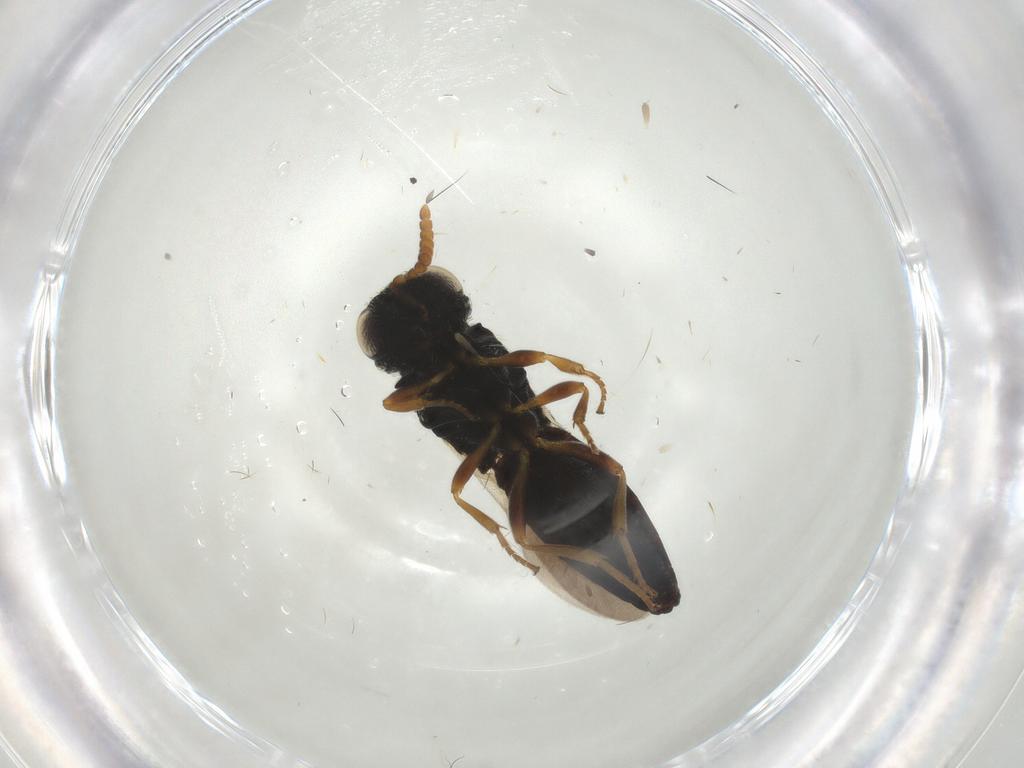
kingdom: Animalia
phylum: Arthropoda
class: Insecta
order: Hymenoptera
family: Scelionidae
